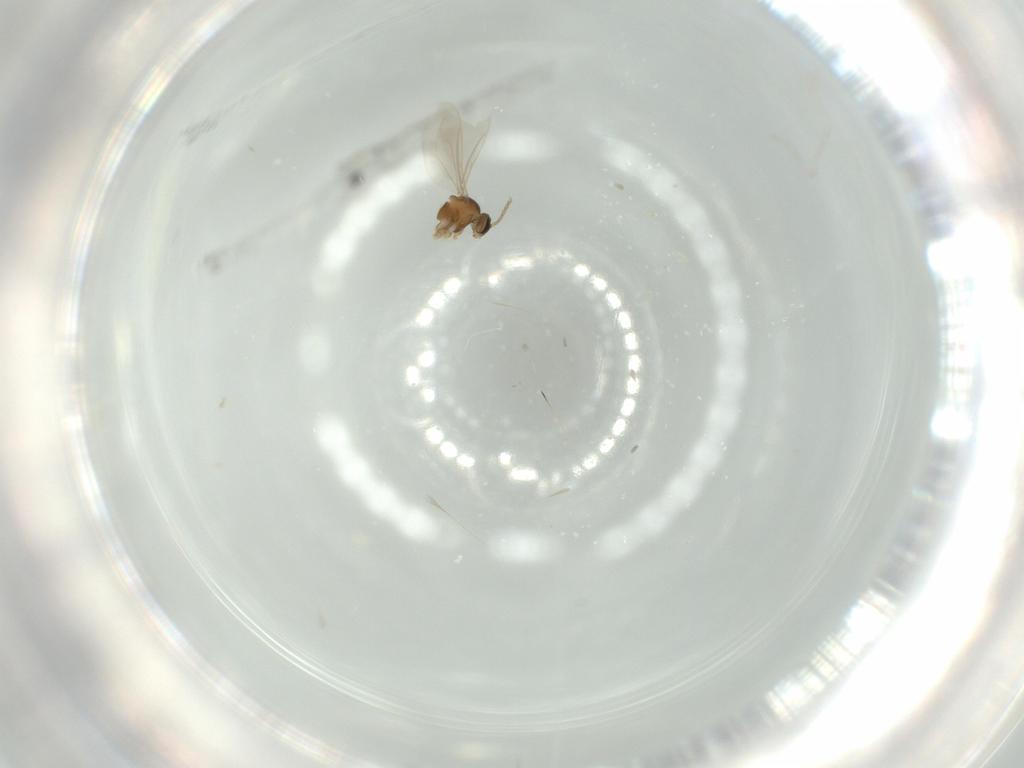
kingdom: Animalia
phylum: Arthropoda
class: Insecta
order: Diptera
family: Cecidomyiidae
